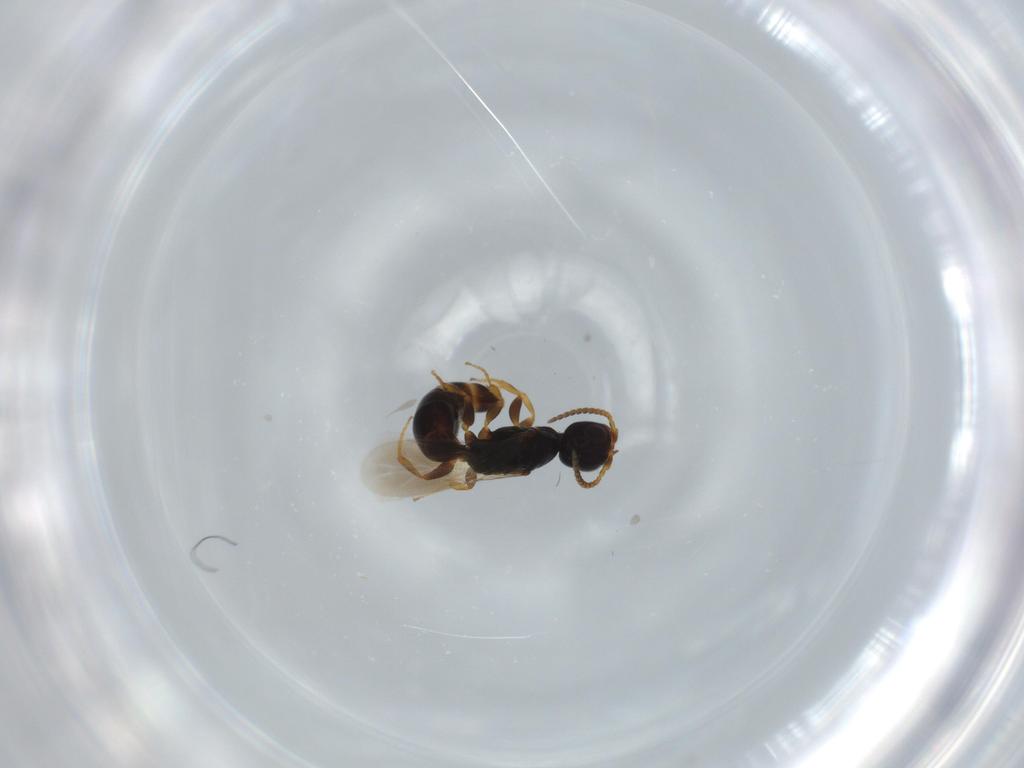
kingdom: Animalia
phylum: Arthropoda
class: Insecta
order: Hymenoptera
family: Bethylidae
